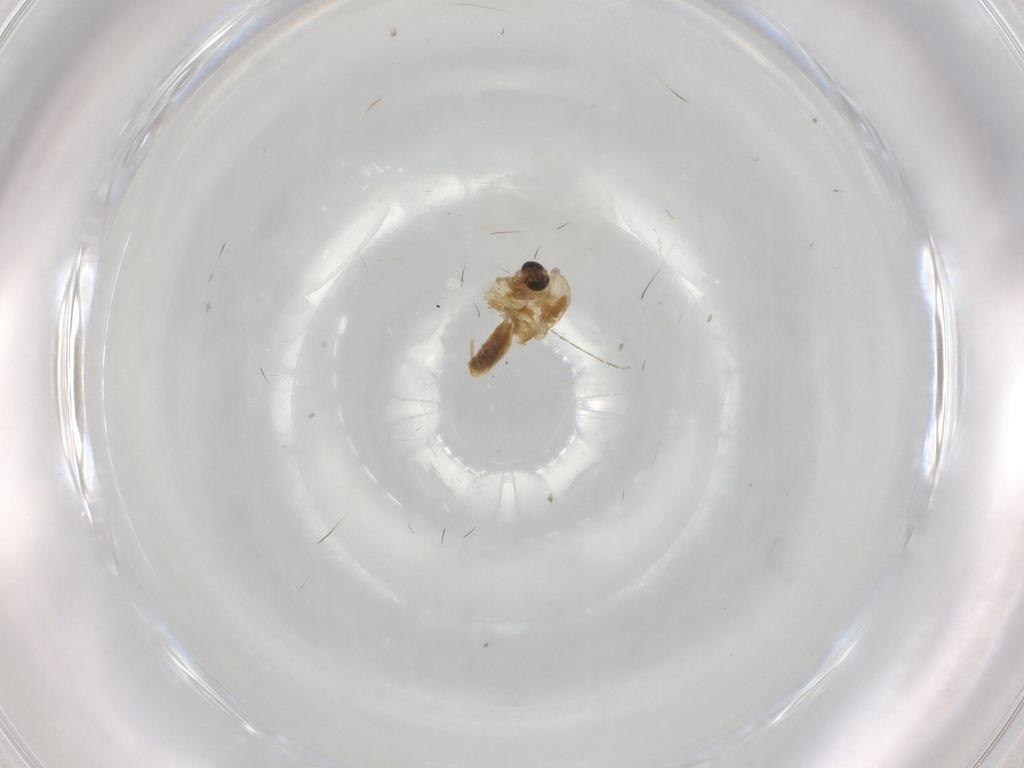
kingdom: Animalia
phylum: Arthropoda
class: Insecta
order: Diptera
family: Chironomidae
